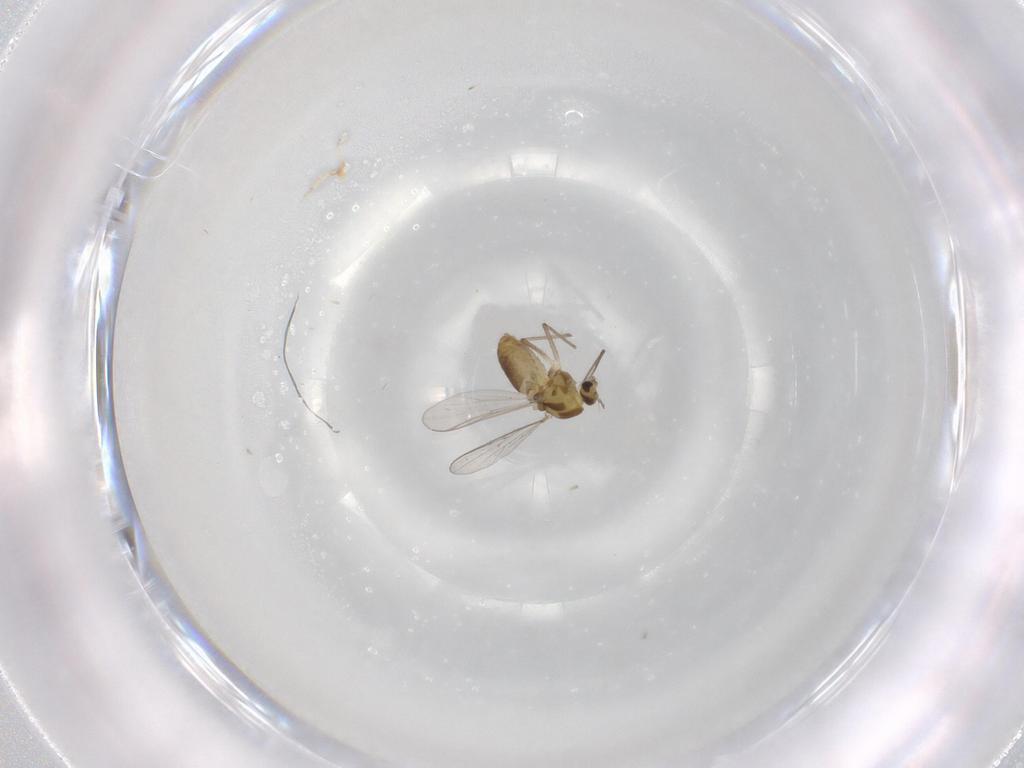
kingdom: Animalia
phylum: Arthropoda
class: Insecta
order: Diptera
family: Chironomidae
